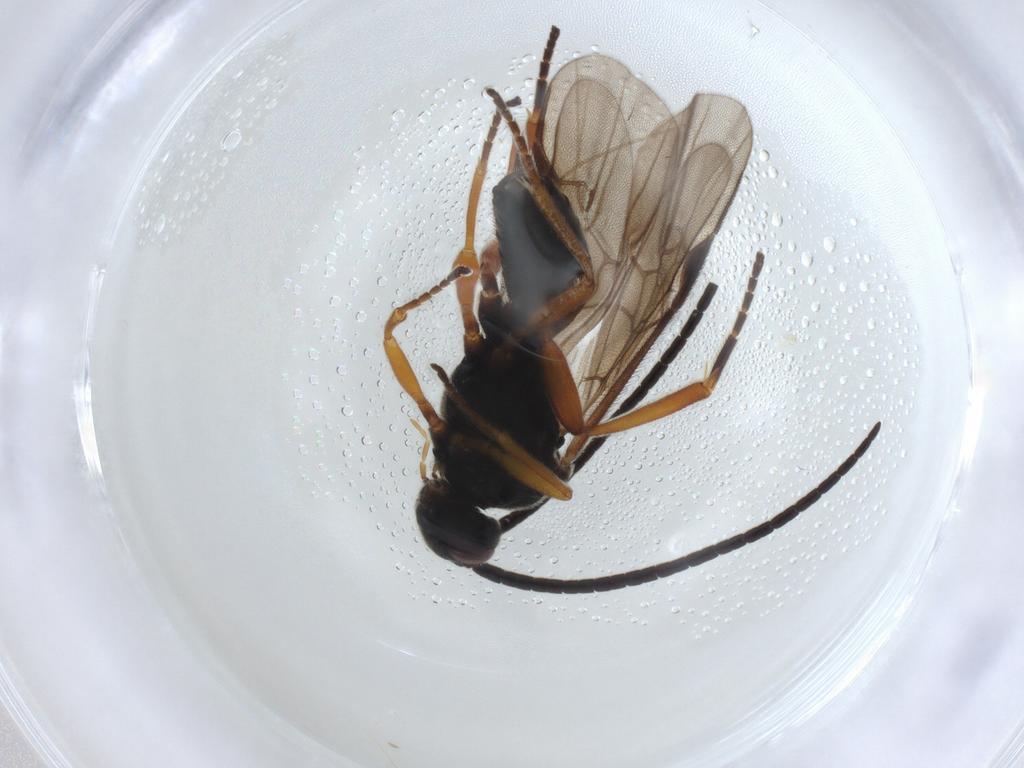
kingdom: Animalia
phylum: Arthropoda
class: Insecta
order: Hymenoptera
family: Braconidae
